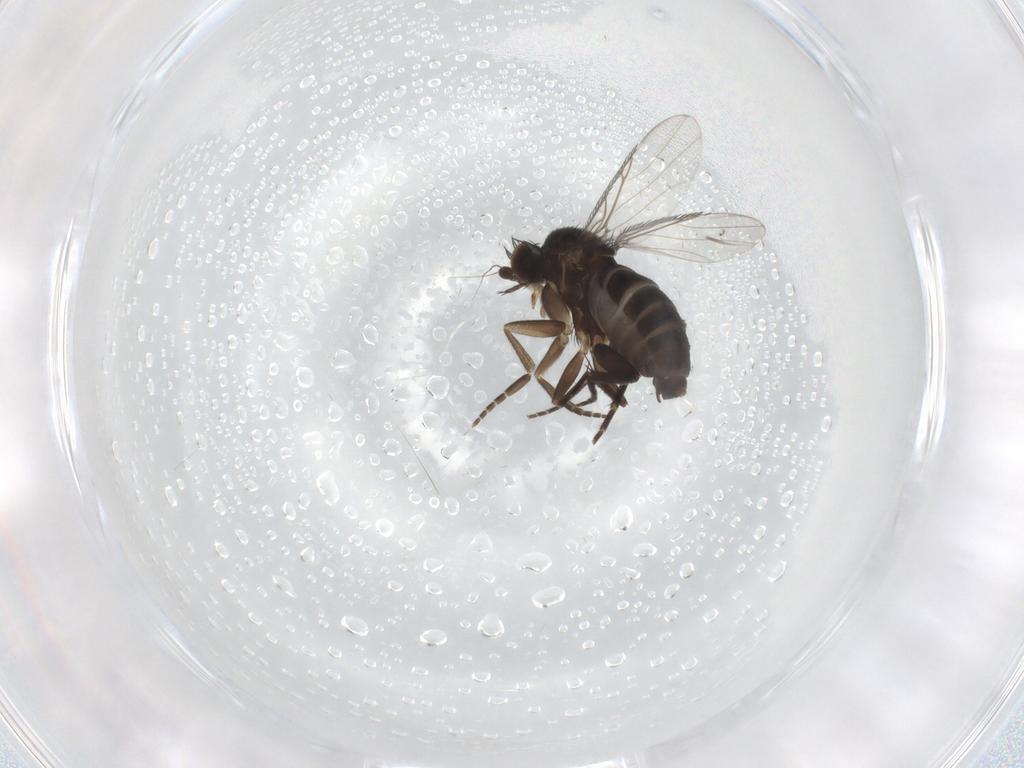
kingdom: Animalia
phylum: Arthropoda
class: Insecta
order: Diptera
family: Phoridae
